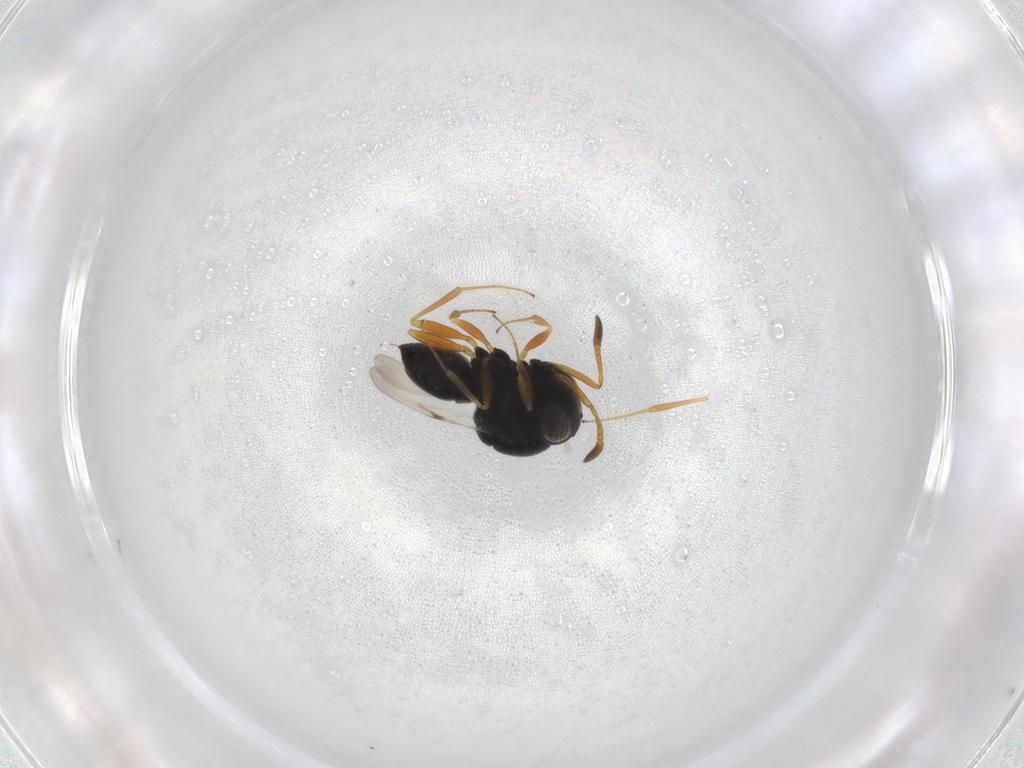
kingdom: Animalia
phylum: Arthropoda
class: Insecta
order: Hymenoptera
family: Scelionidae
